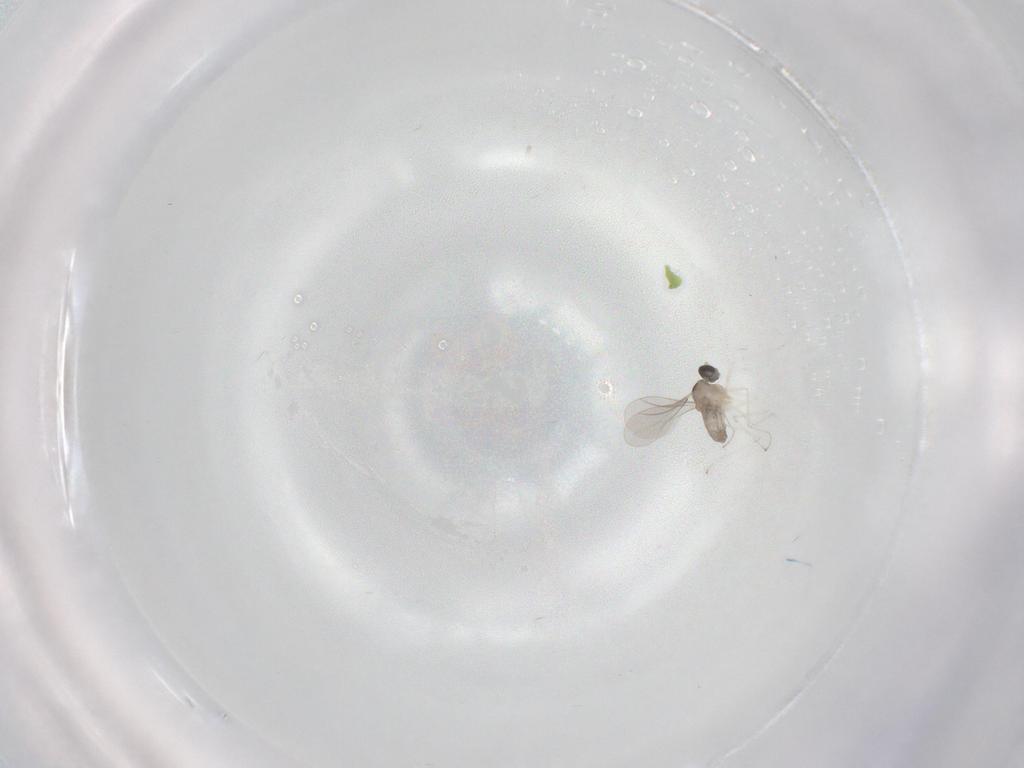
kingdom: Animalia
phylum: Arthropoda
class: Insecta
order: Diptera
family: Cecidomyiidae
